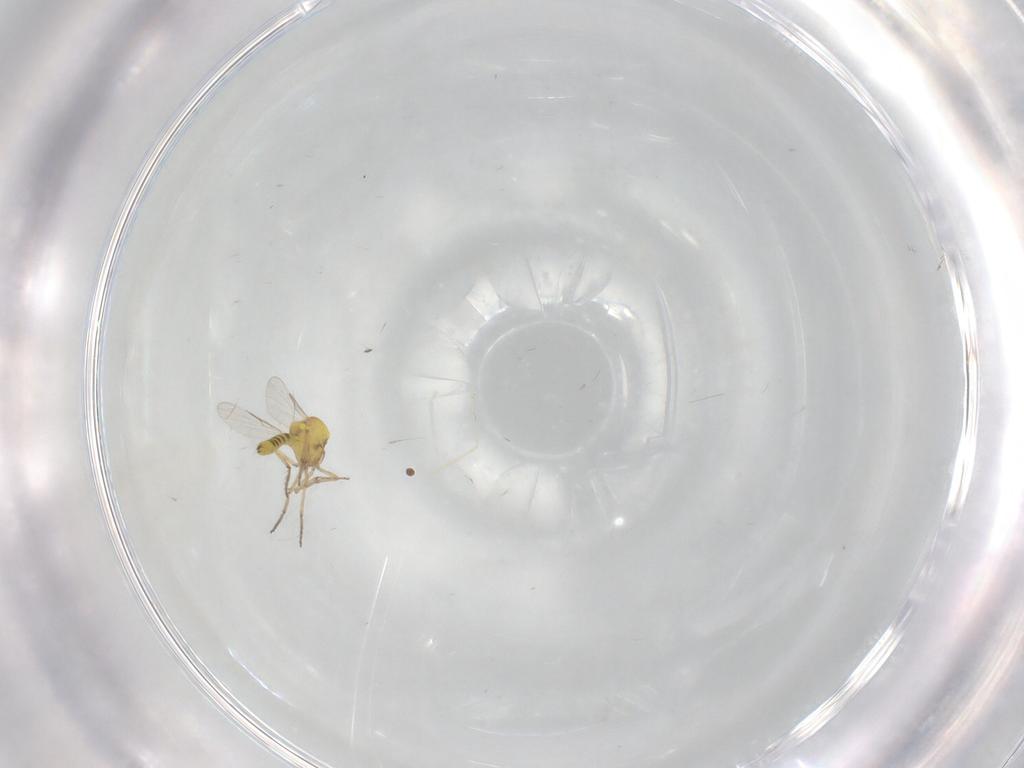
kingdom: Animalia
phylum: Arthropoda
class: Insecta
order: Diptera
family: Ceratopogonidae
